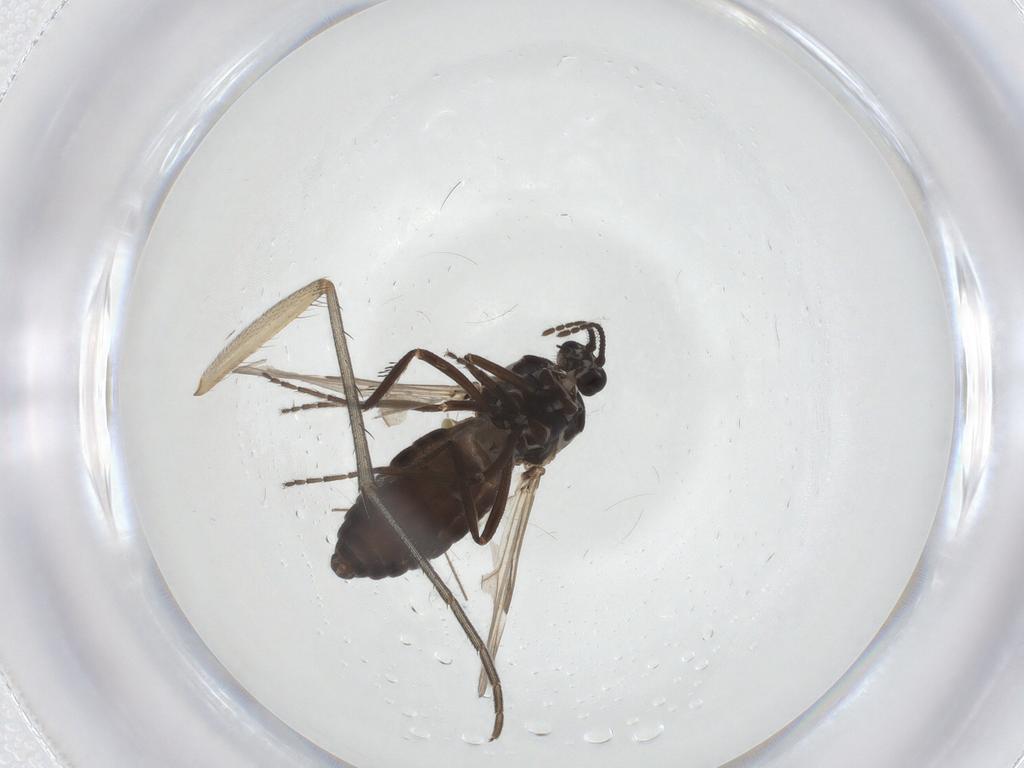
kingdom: Animalia
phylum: Arthropoda
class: Insecta
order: Diptera
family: Mycetophilidae
